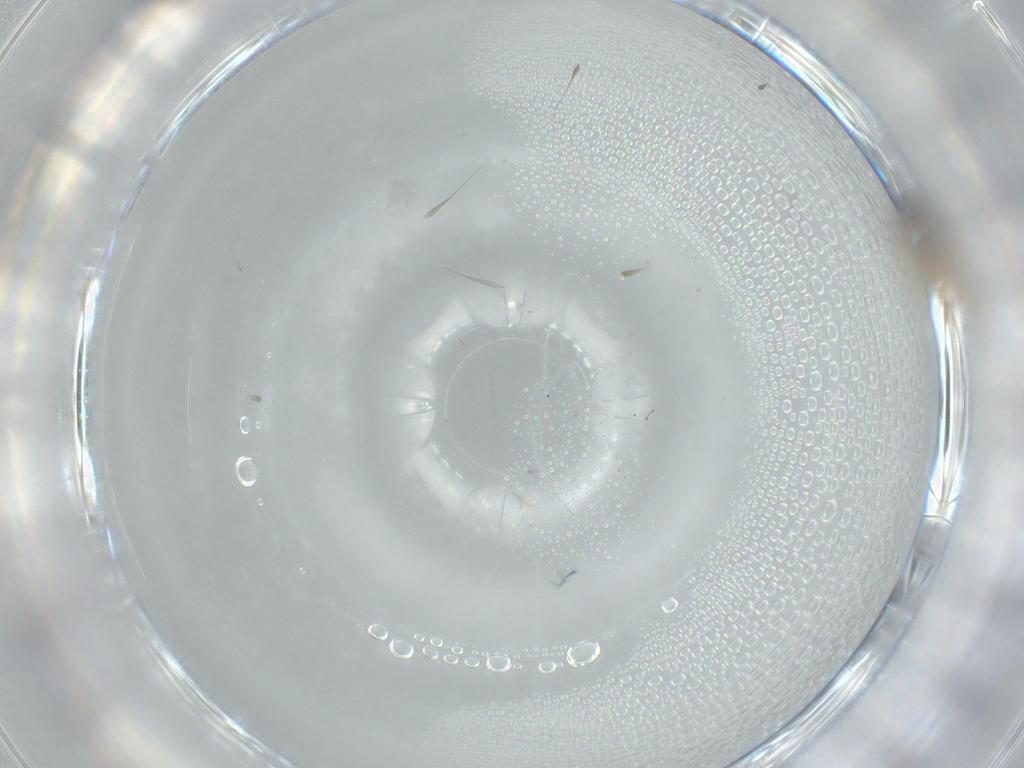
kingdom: Animalia
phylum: Arthropoda
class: Insecta
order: Diptera
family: Cecidomyiidae
